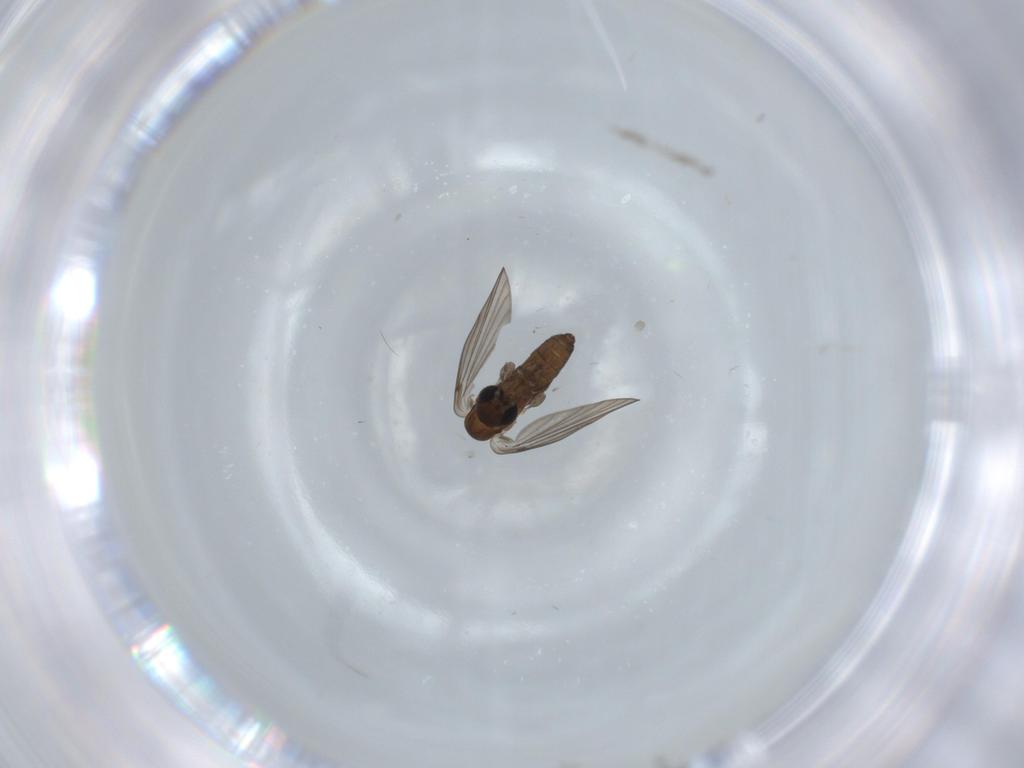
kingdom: Animalia
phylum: Arthropoda
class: Insecta
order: Diptera
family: Psychodidae
